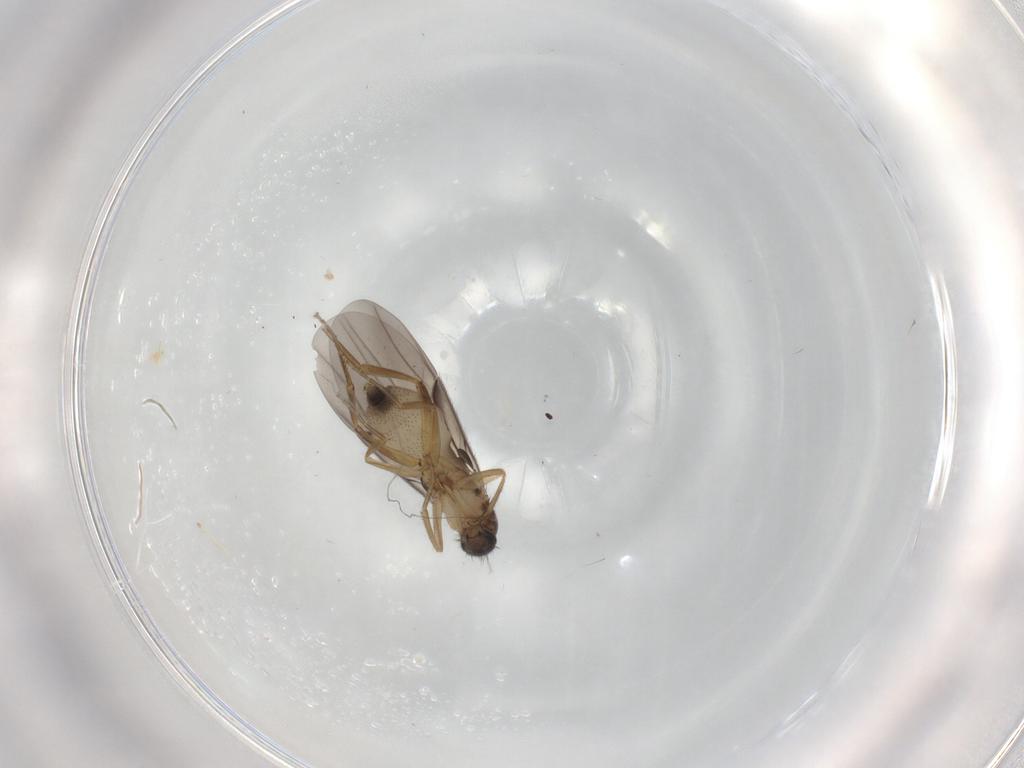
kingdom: Animalia
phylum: Arthropoda
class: Insecta
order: Diptera
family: Phoridae
